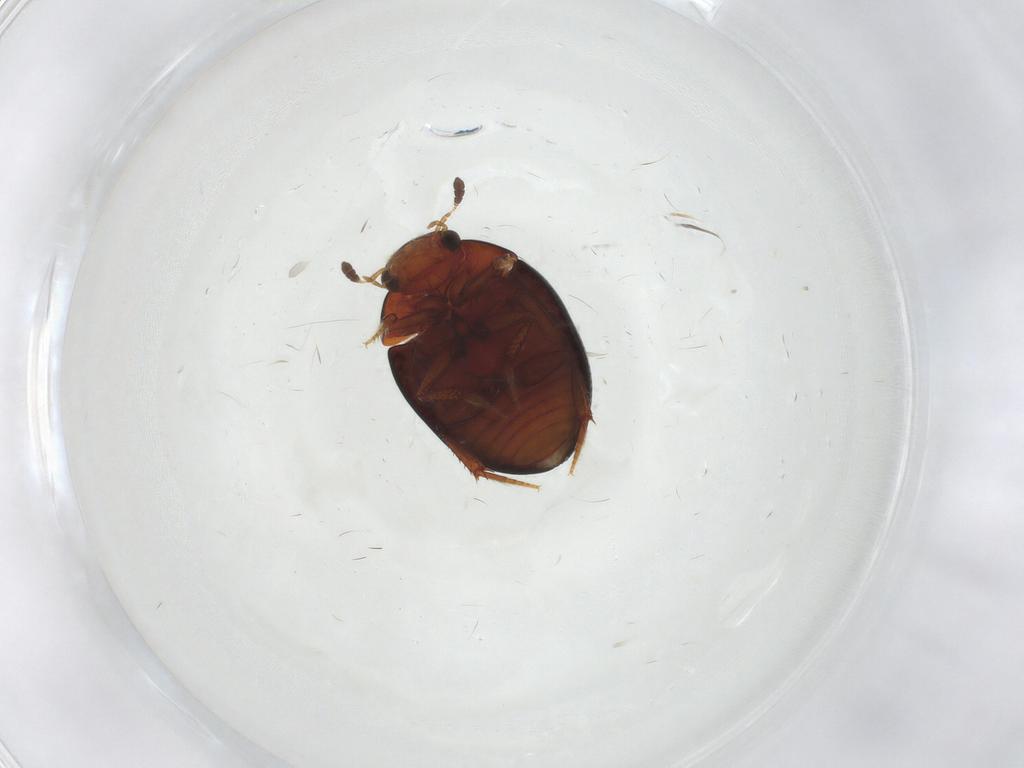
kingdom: Animalia
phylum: Arthropoda
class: Insecta
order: Coleoptera
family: Hydrophilidae
